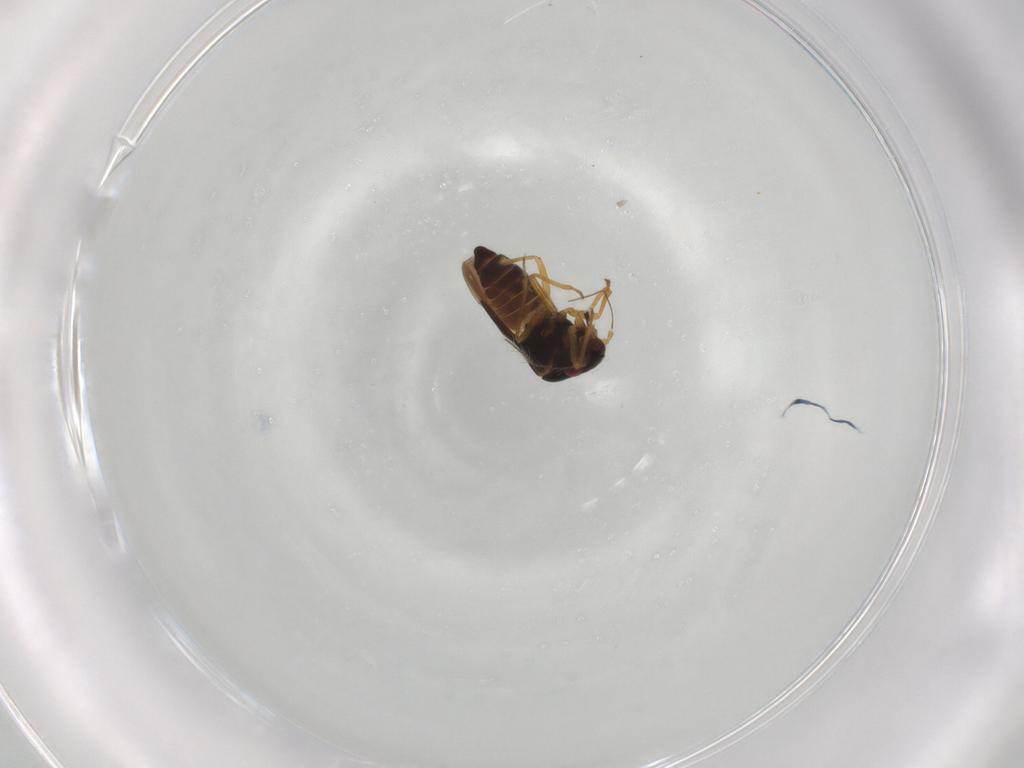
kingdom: Animalia
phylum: Arthropoda
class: Insecta
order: Hemiptera
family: Schizopteridae
